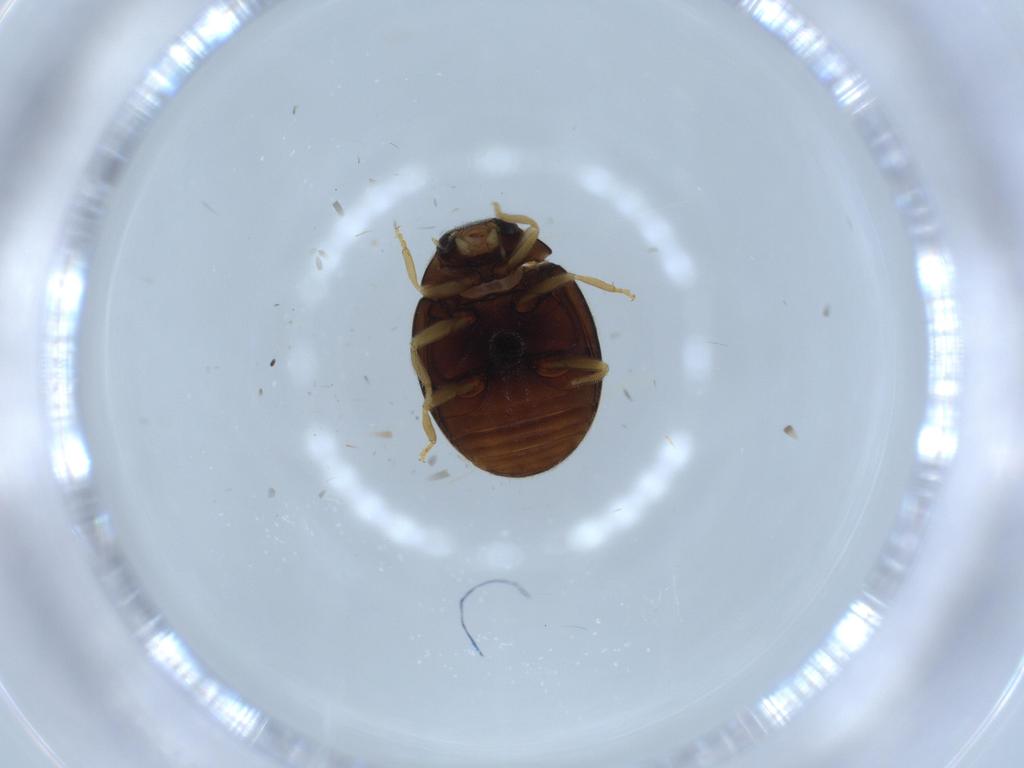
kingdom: Animalia
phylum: Arthropoda
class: Insecta
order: Coleoptera
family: Coccinellidae
